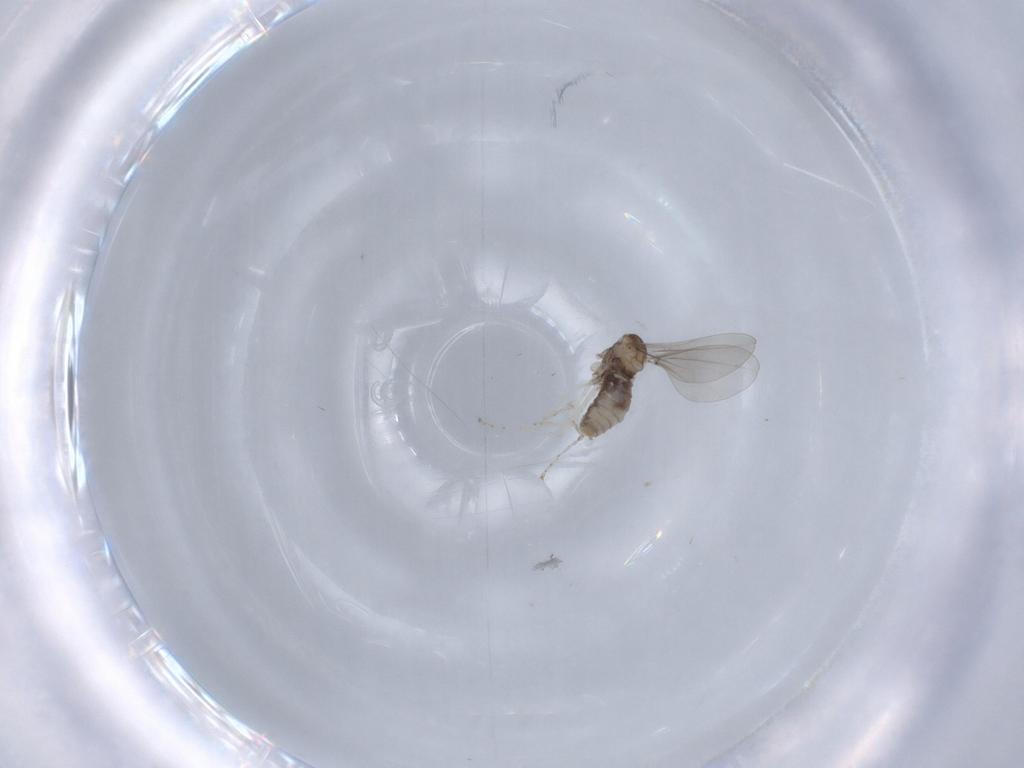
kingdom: Animalia
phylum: Arthropoda
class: Insecta
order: Diptera
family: Cecidomyiidae
